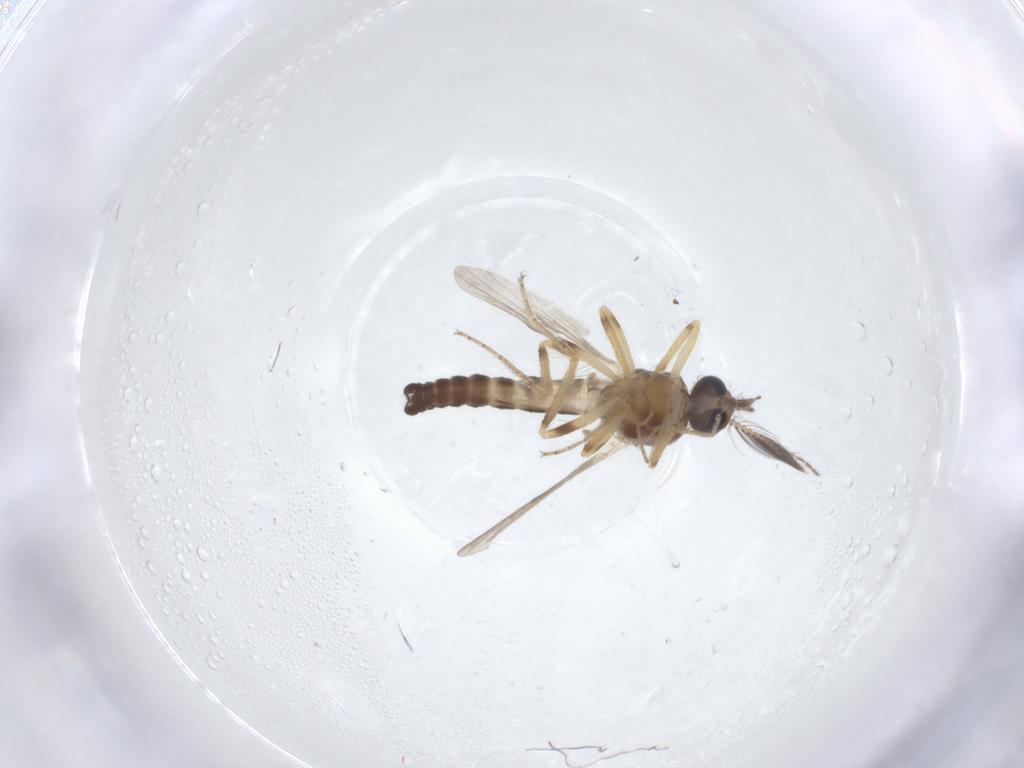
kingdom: Animalia
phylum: Arthropoda
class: Insecta
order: Diptera
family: Ceratopogonidae
